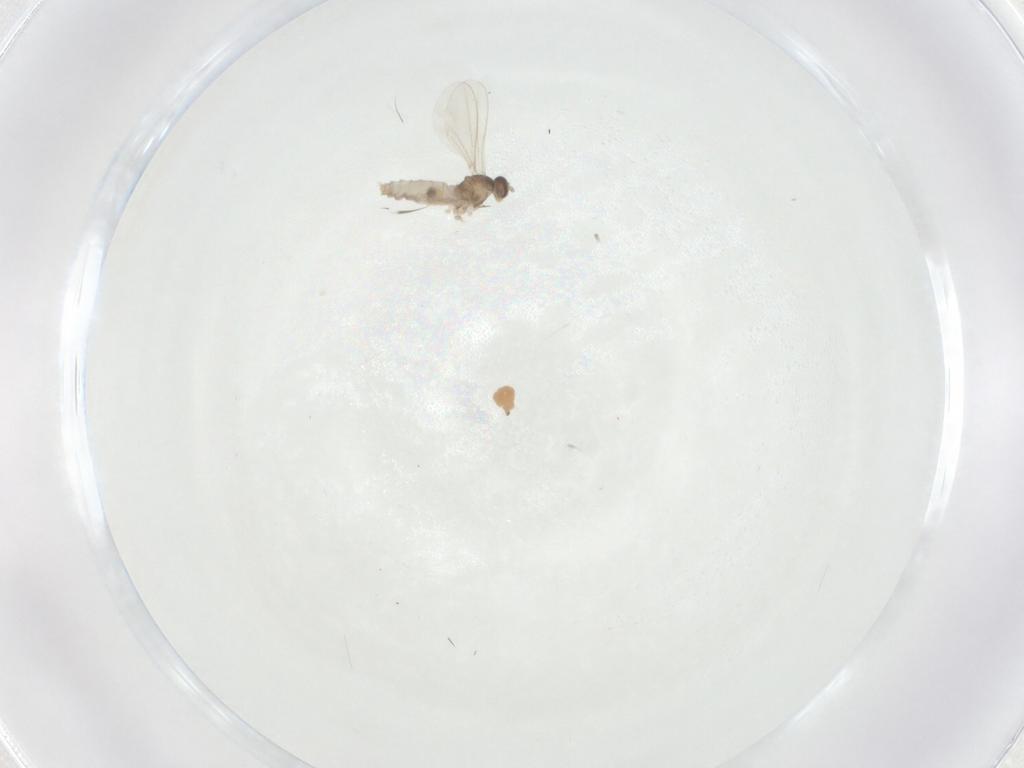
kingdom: Animalia
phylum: Arthropoda
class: Insecta
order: Diptera
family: Cecidomyiidae
